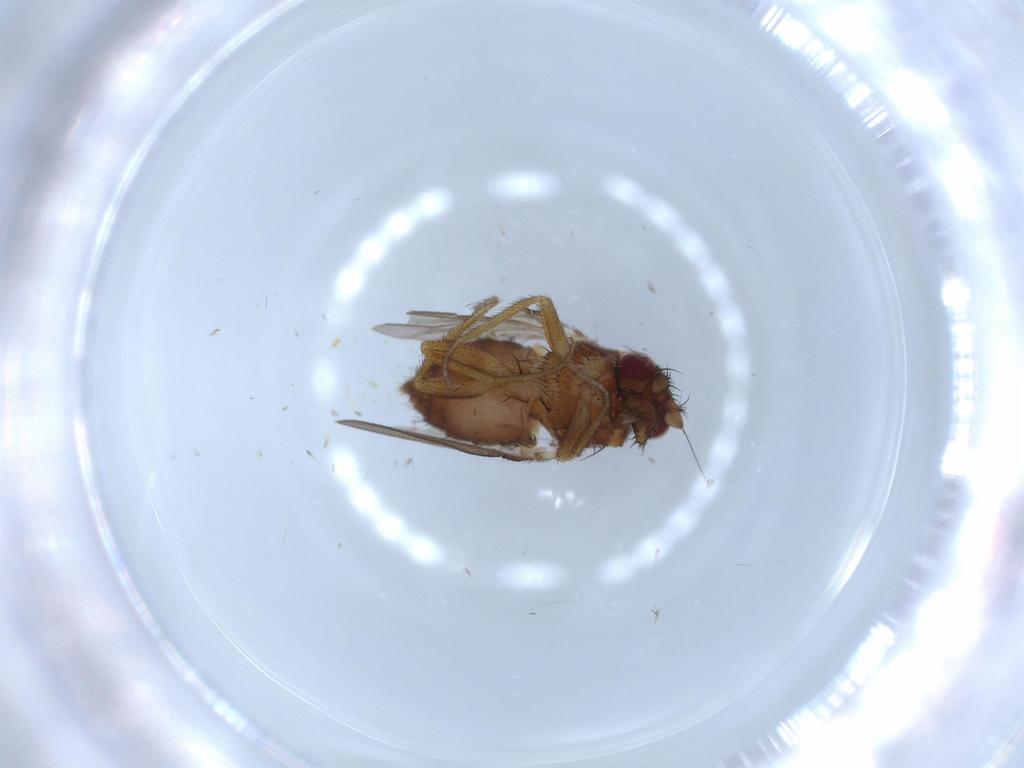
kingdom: Animalia
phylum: Arthropoda
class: Insecta
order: Diptera
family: Milichiidae
